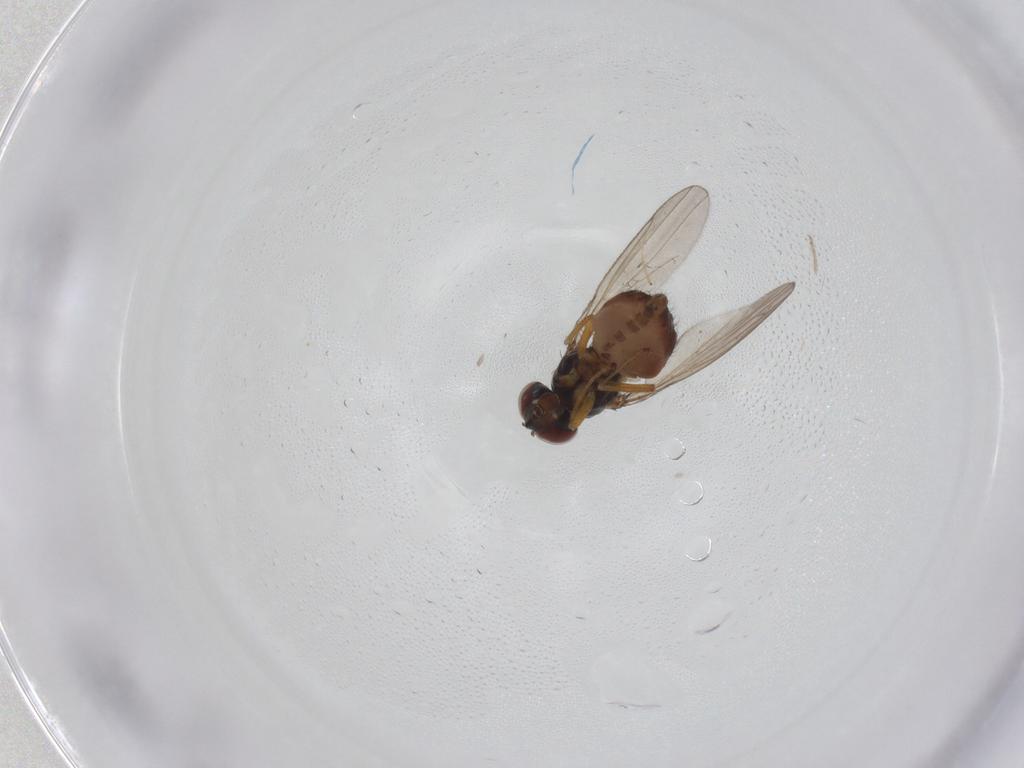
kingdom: Animalia
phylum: Arthropoda
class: Insecta
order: Diptera
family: Ephydridae
